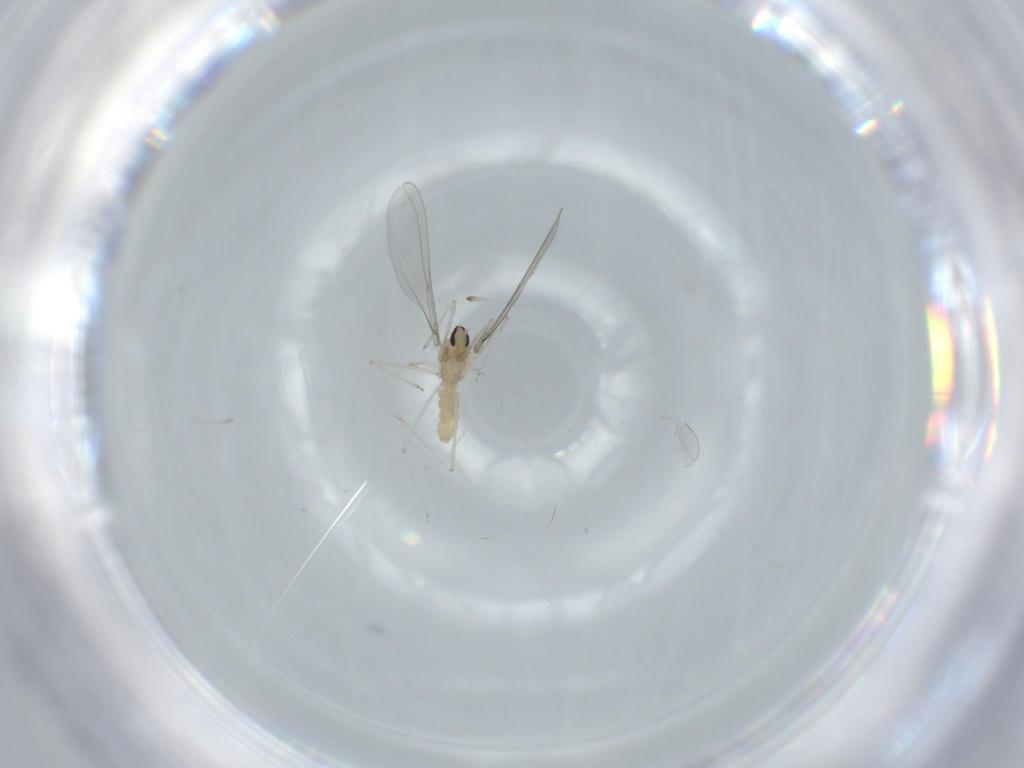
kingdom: Animalia
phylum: Arthropoda
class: Insecta
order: Diptera
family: Cecidomyiidae
